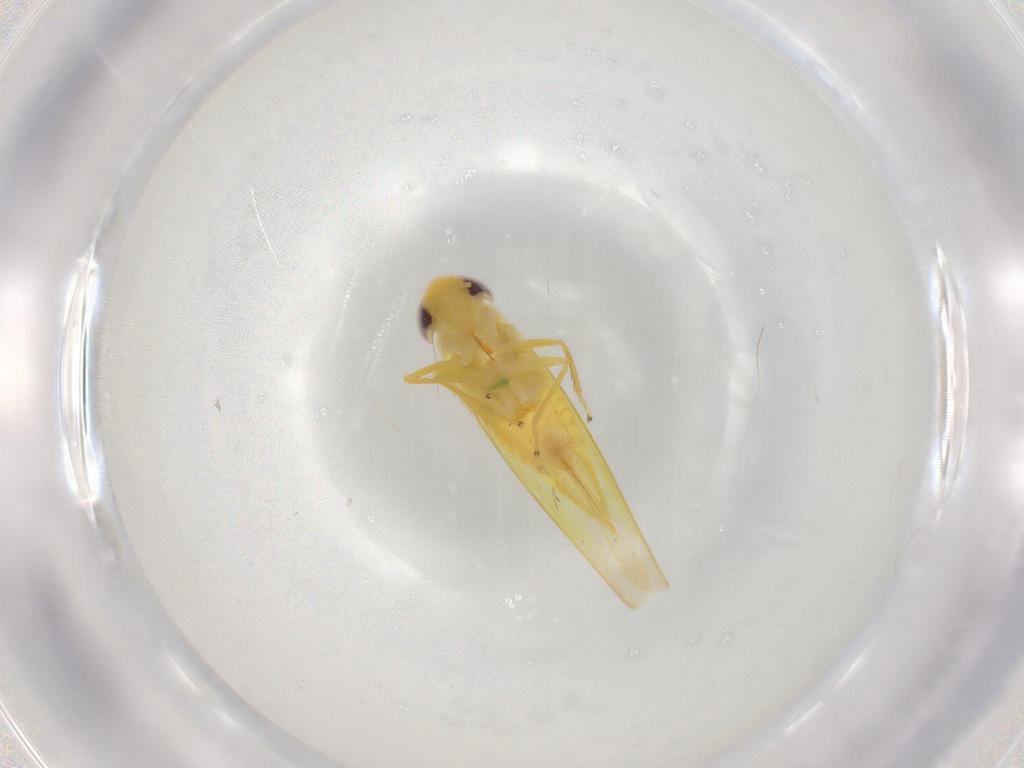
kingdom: Animalia
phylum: Arthropoda
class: Insecta
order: Hemiptera
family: Cicadellidae
